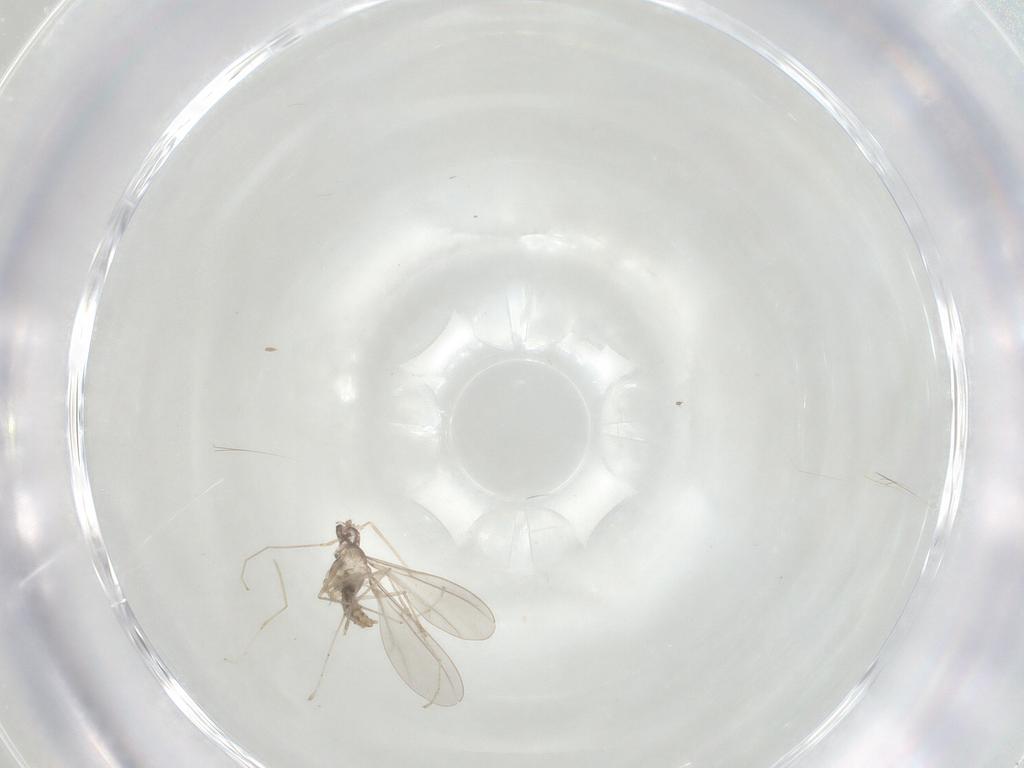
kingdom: Animalia
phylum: Arthropoda
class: Insecta
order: Diptera
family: Cecidomyiidae
